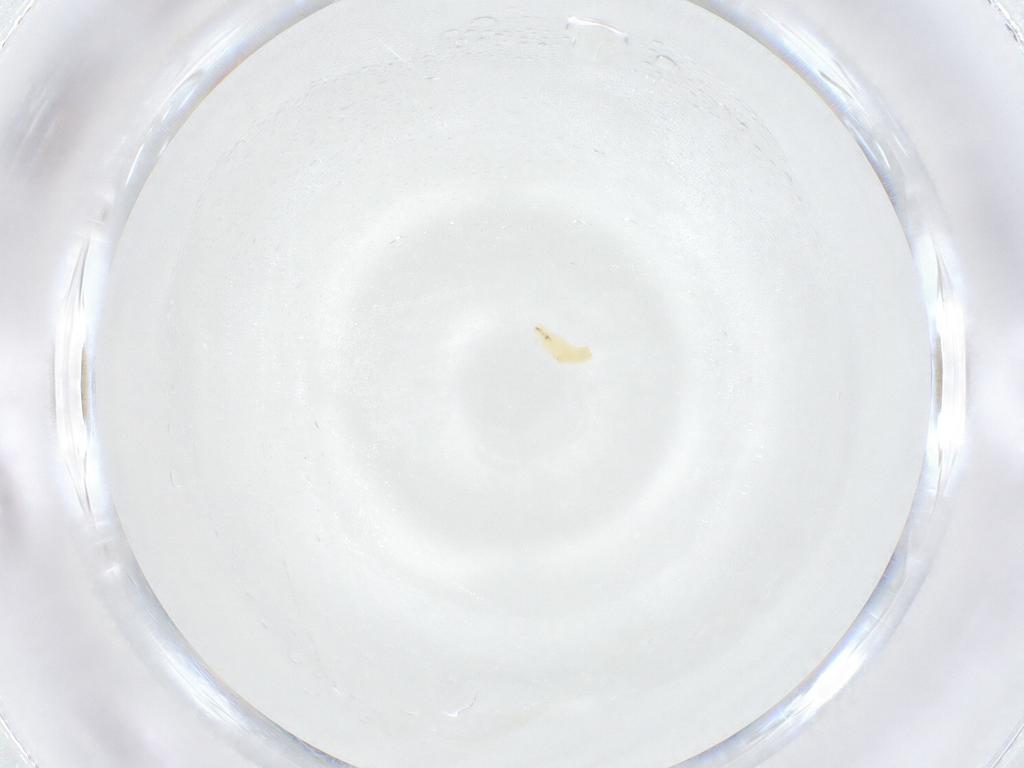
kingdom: Animalia
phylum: Arthropoda
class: Insecta
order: Diptera
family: Sarcophagidae
